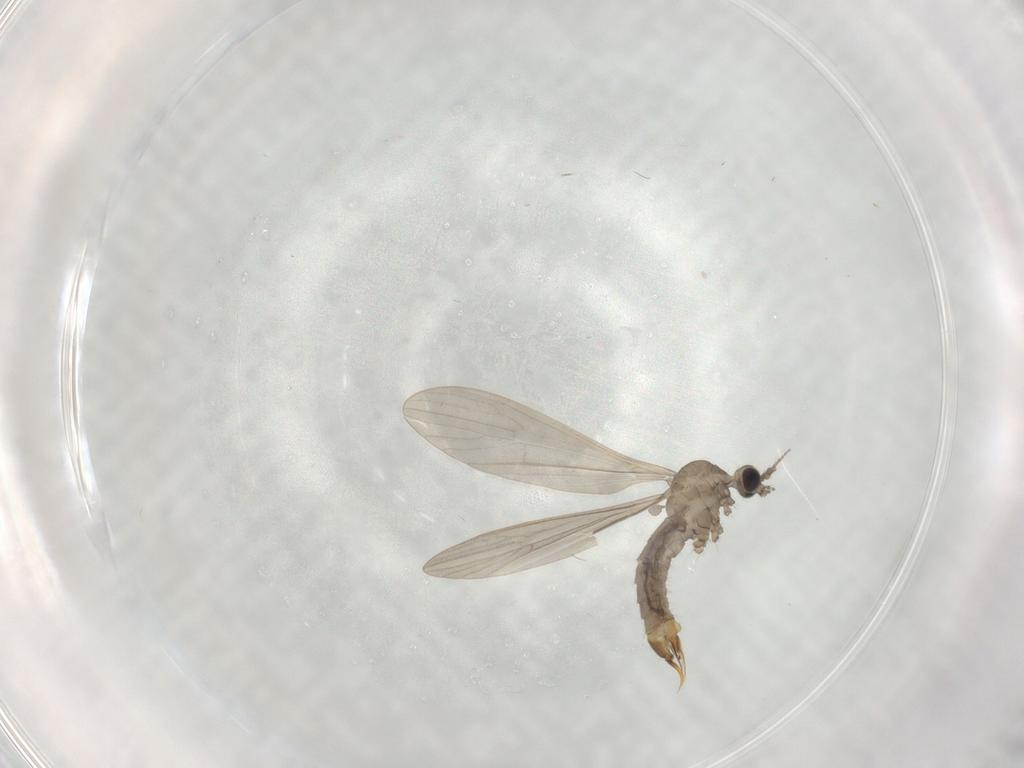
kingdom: Animalia
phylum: Arthropoda
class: Insecta
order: Diptera
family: Limoniidae
